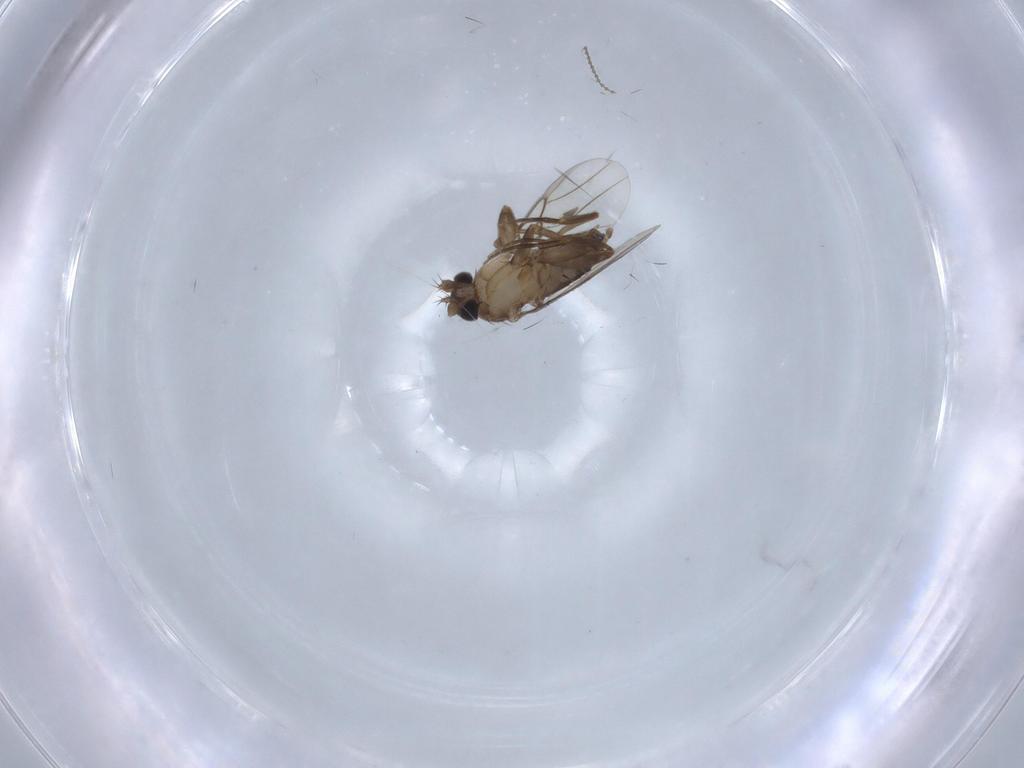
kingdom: Animalia
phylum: Arthropoda
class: Insecta
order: Diptera
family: Phoridae
